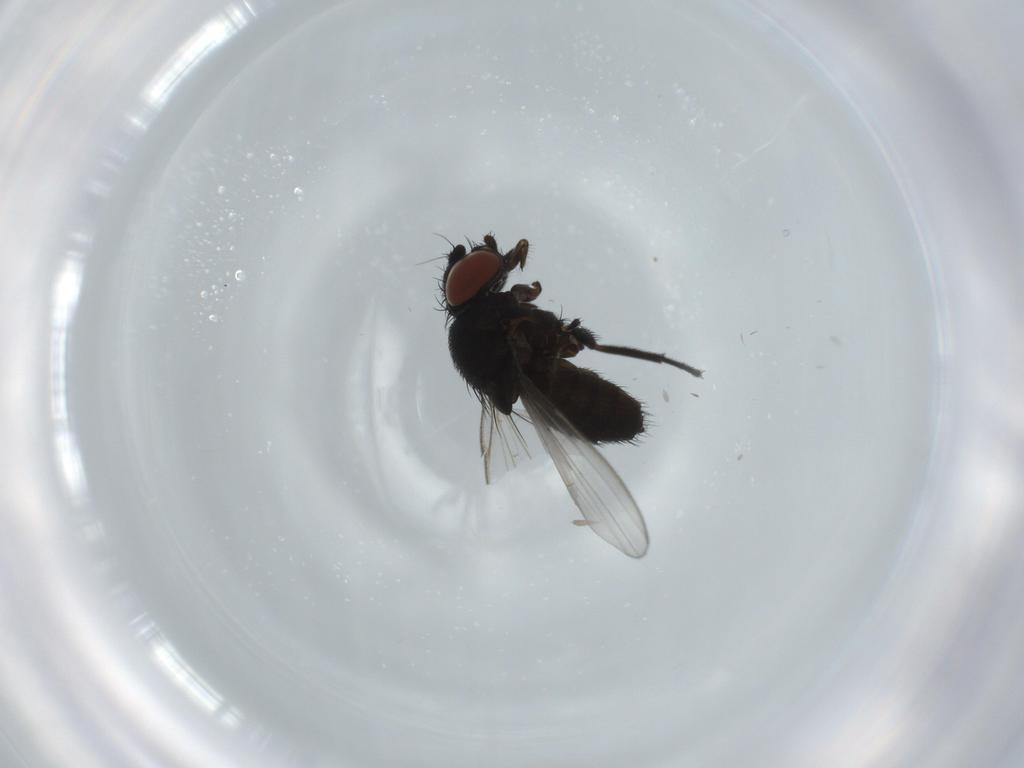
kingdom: Animalia
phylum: Arthropoda
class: Insecta
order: Diptera
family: Milichiidae
